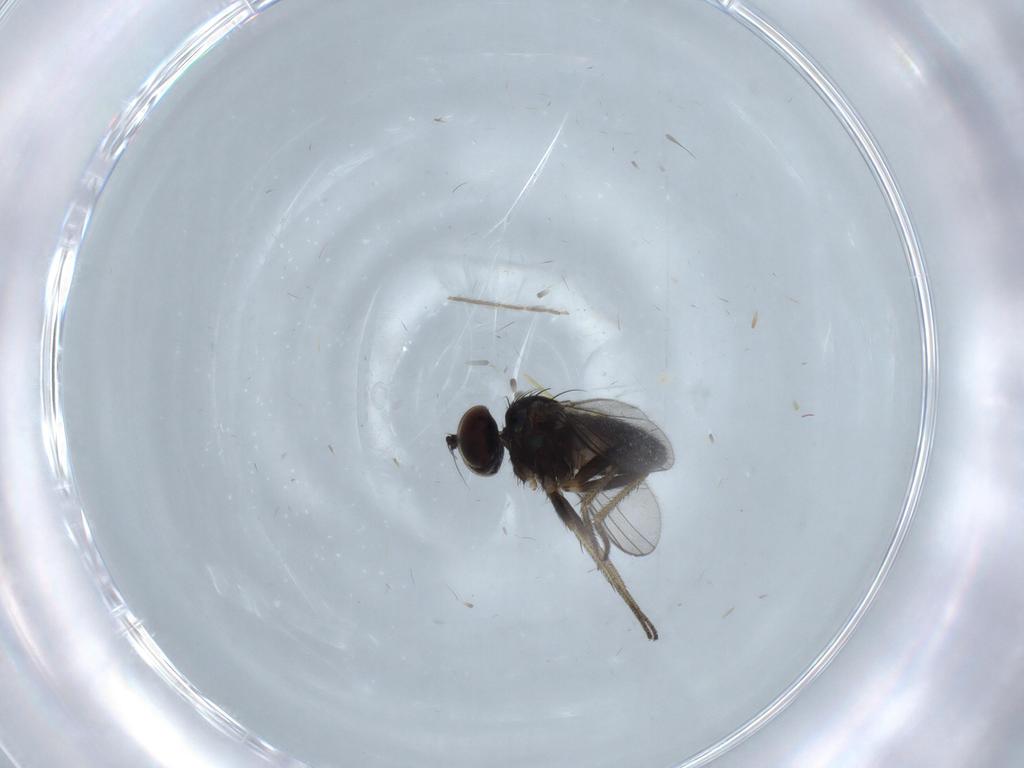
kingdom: Animalia
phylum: Arthropoda
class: Insecta
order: Diptera
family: Dolichopodidae
